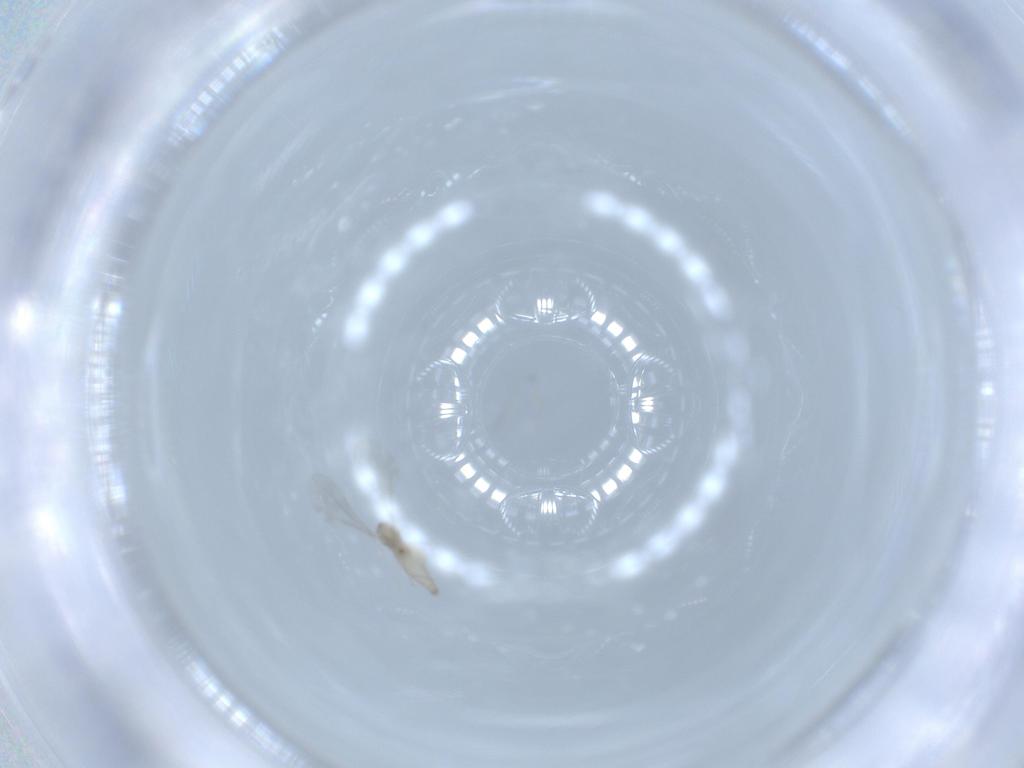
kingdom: Animalia
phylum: Arthropoda
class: Insecta
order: Diptera
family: Cecidomyiidae
